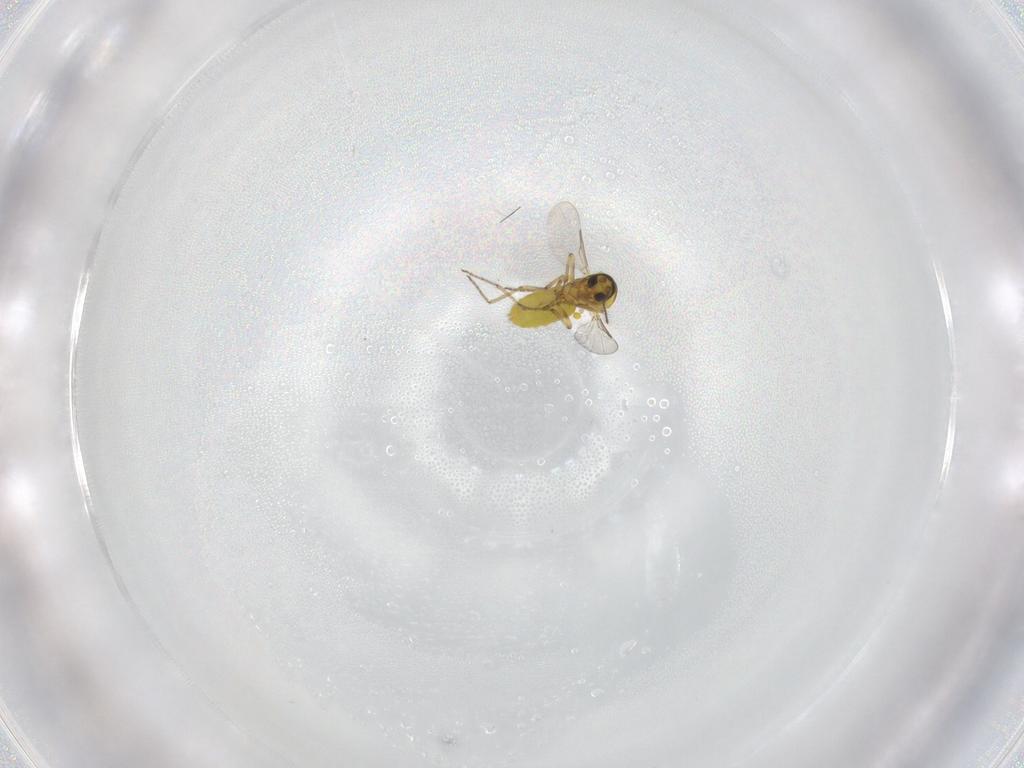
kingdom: Animalia
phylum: Arthropoda
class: Insecta
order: Diptera
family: Ceratopogonidae
